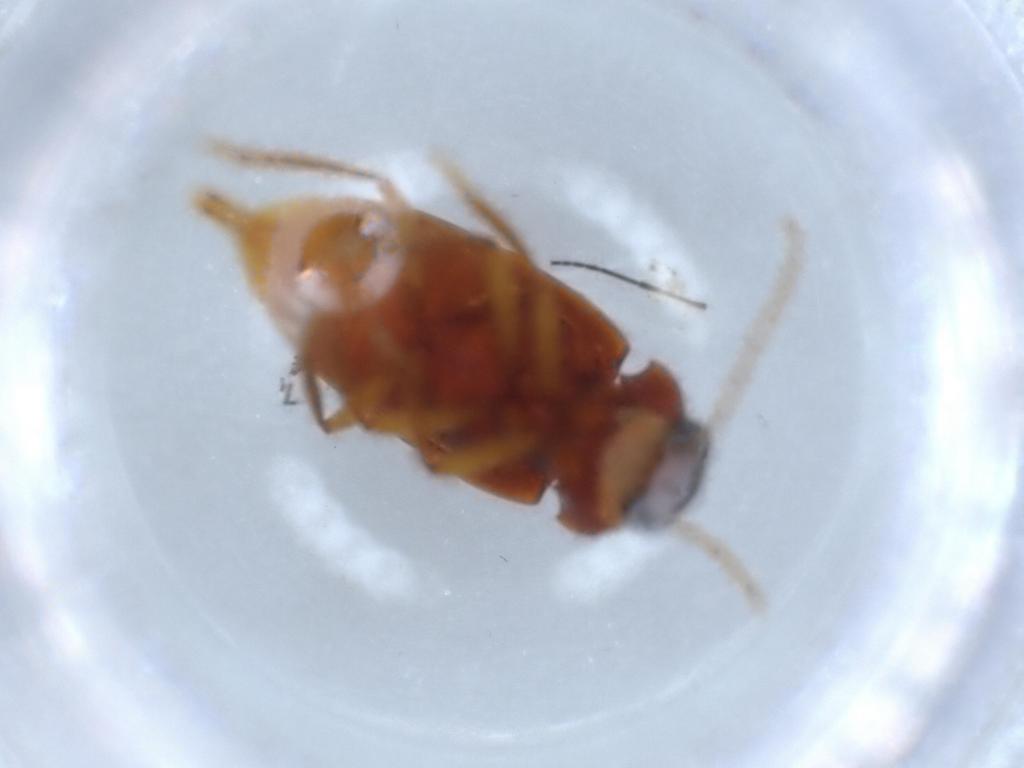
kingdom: Animalia
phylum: Arthropoda
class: Insecta
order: Coleoptera
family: Ptilodactylidae
